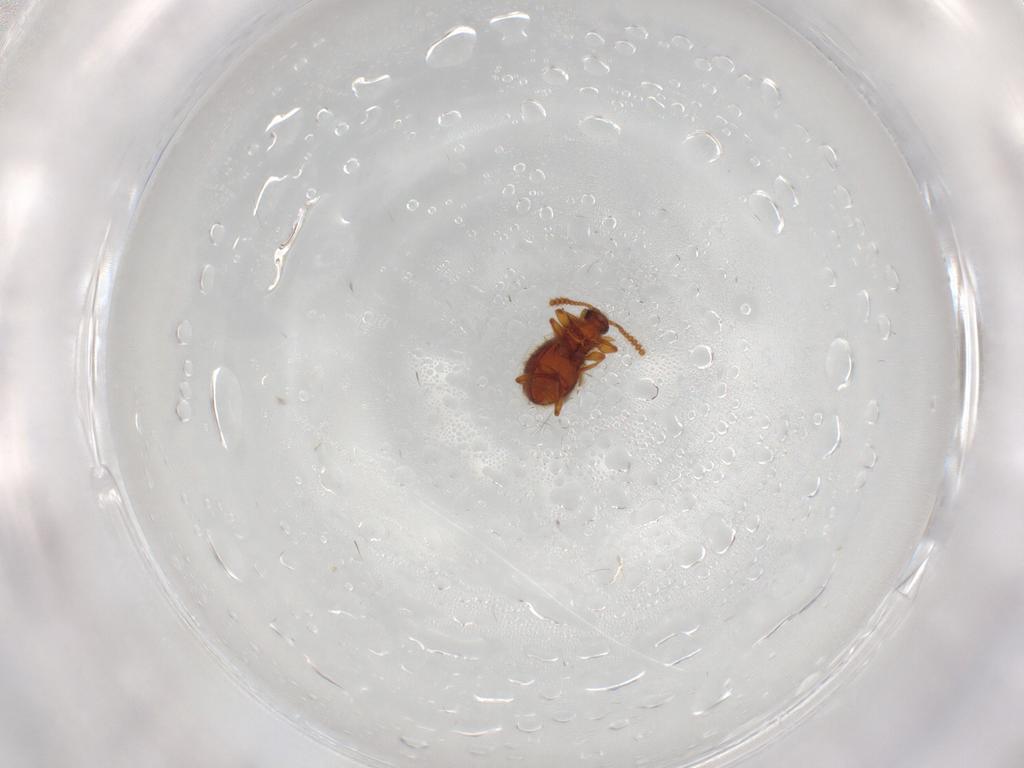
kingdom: Animalia
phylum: Arthropoda
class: Insecta
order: Coleoptera
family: Staphylinidae
